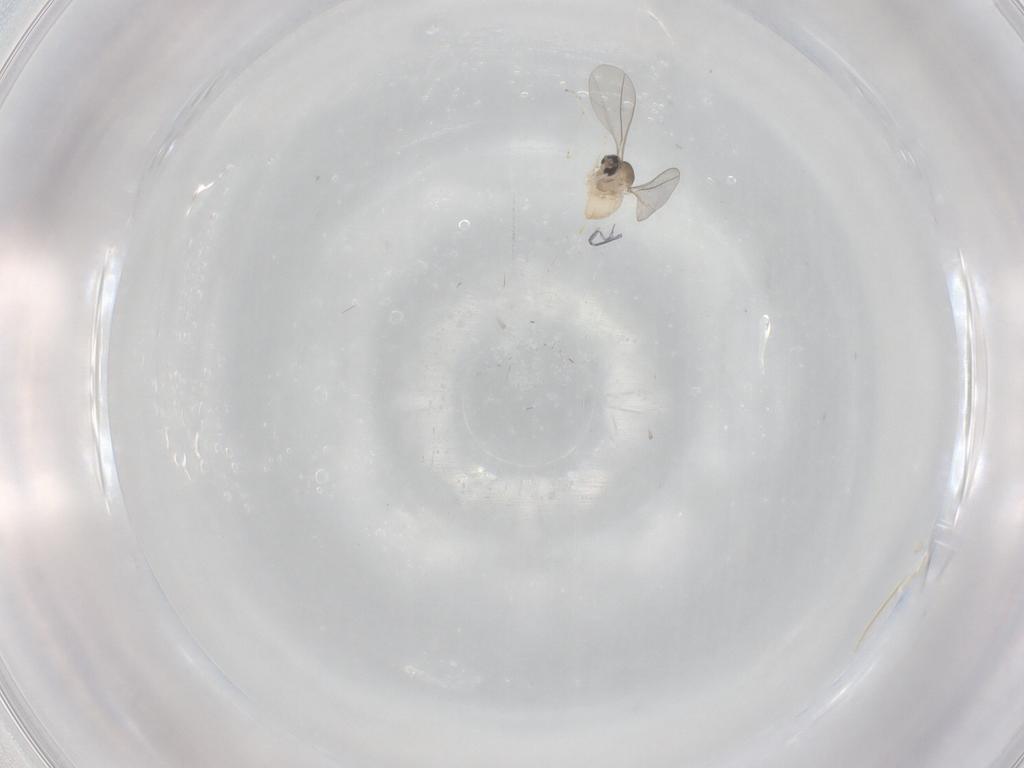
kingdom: Animalia
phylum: Arthropoda
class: Insecta
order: Diptera
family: Cecidomyiidae
